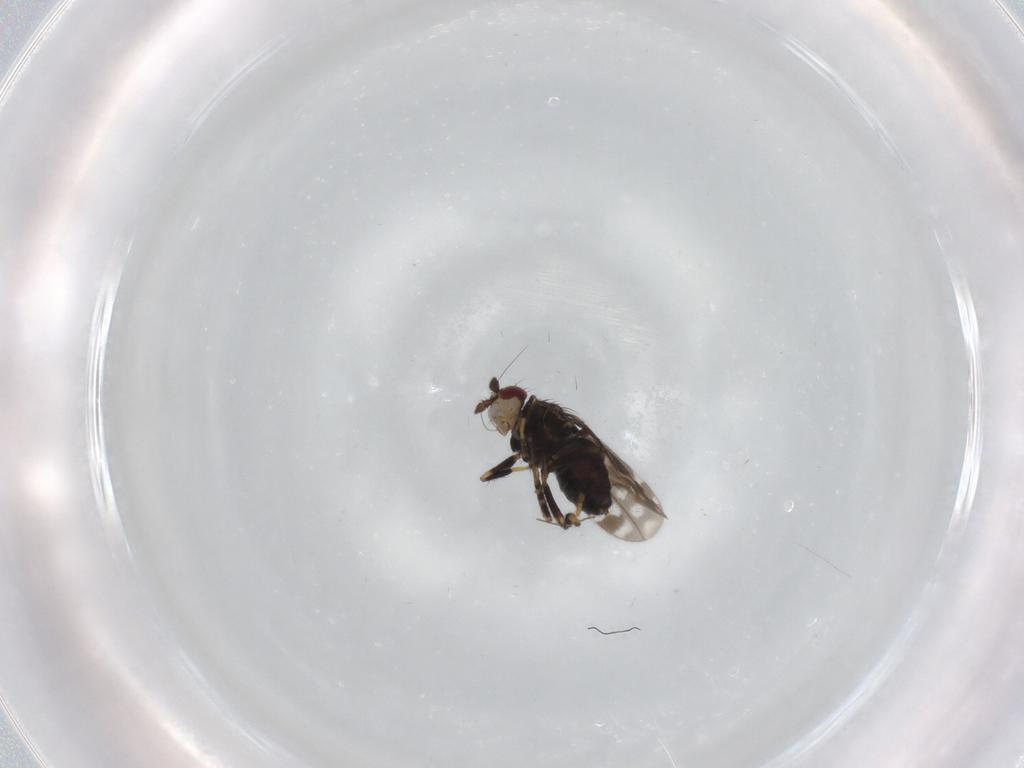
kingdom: Animalia
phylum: Arthropoda
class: Insecta
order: Diptera
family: Sphaeroceridae
